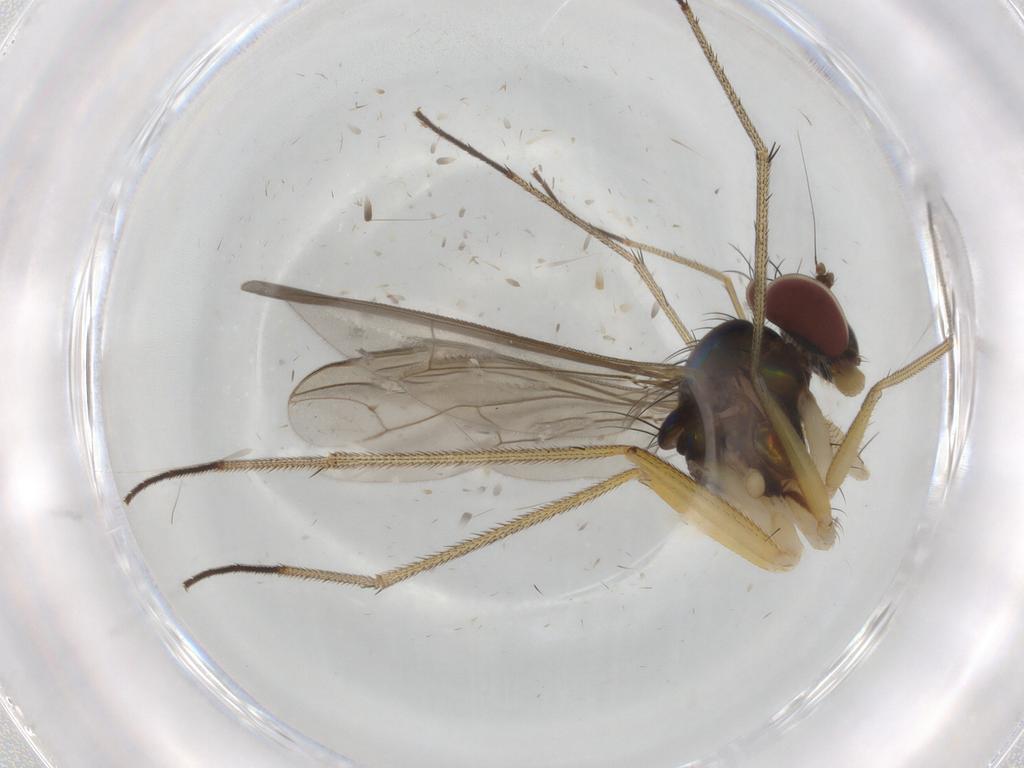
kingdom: Animalia
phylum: Arthropoda
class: Insecta
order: Diptera
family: Dolichopodidae
